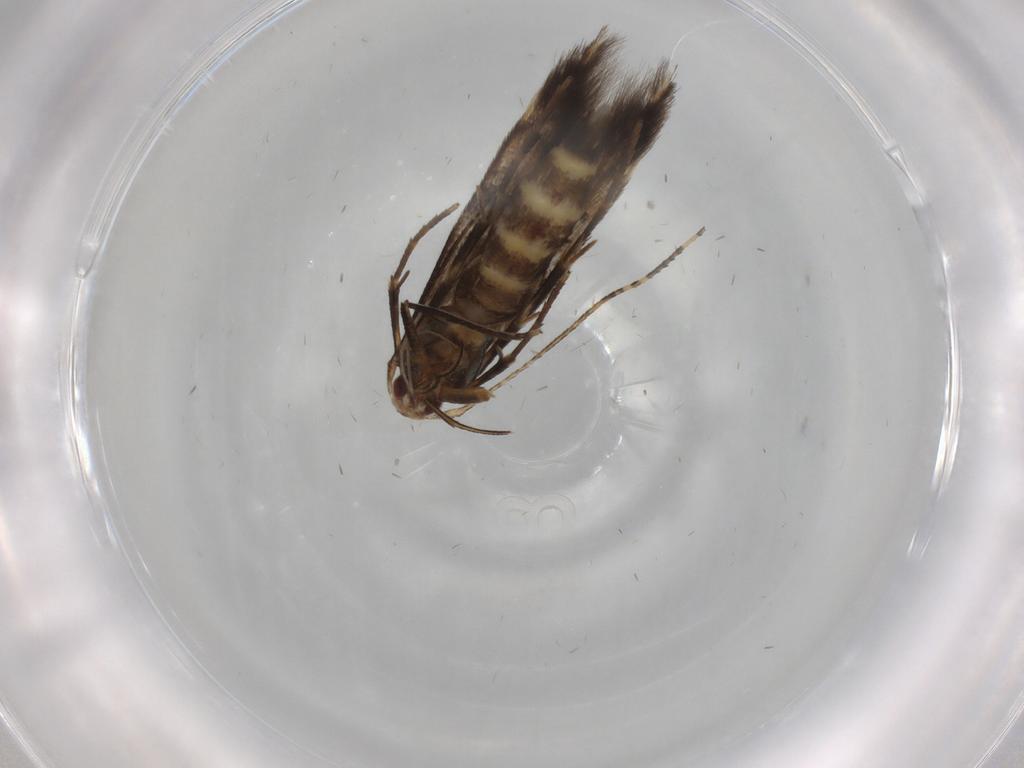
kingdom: Animalia
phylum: Arthropoda
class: Insecta
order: Lepidoptera
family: Cosmopterigidae
